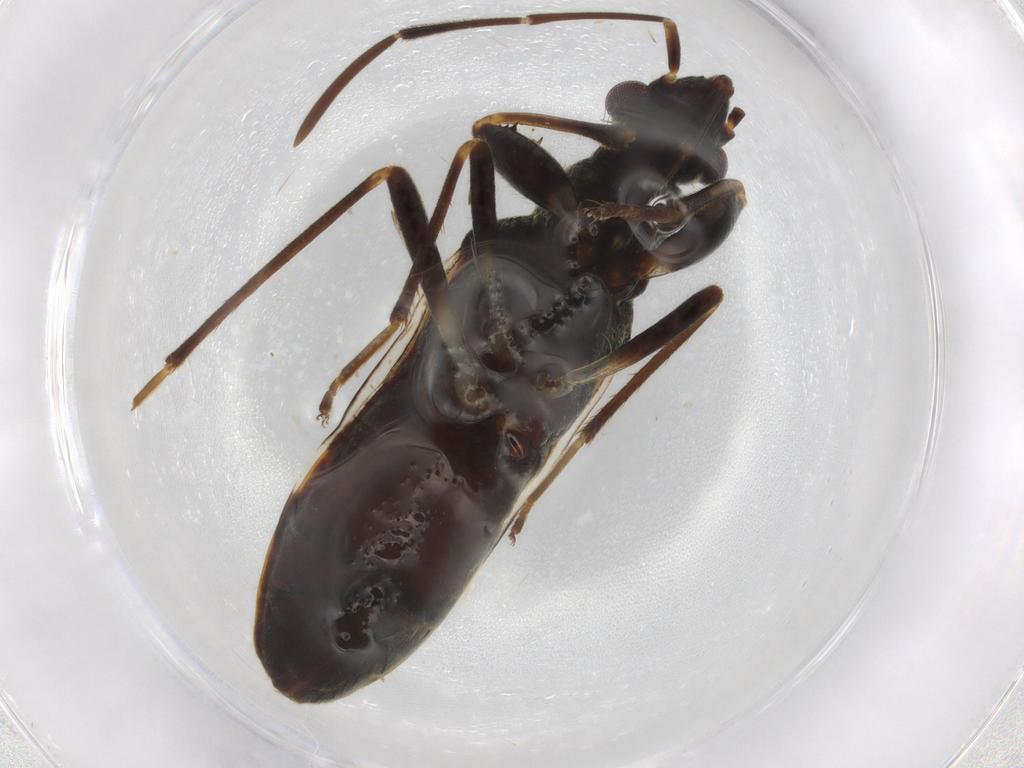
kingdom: Animalia
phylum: Arthropoda
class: Insecta
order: Hemiptera
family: Rhyparochromidae
